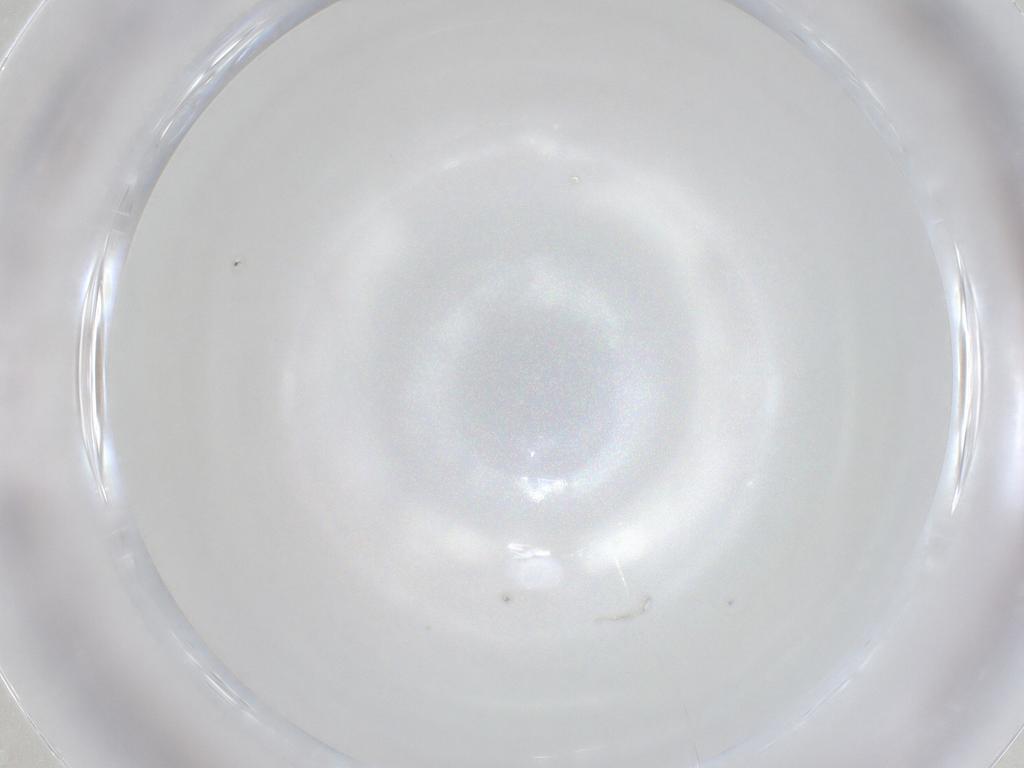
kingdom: Animalia
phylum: Arthropoda
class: Insecta
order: Diptera
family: Cecidomyiidae
